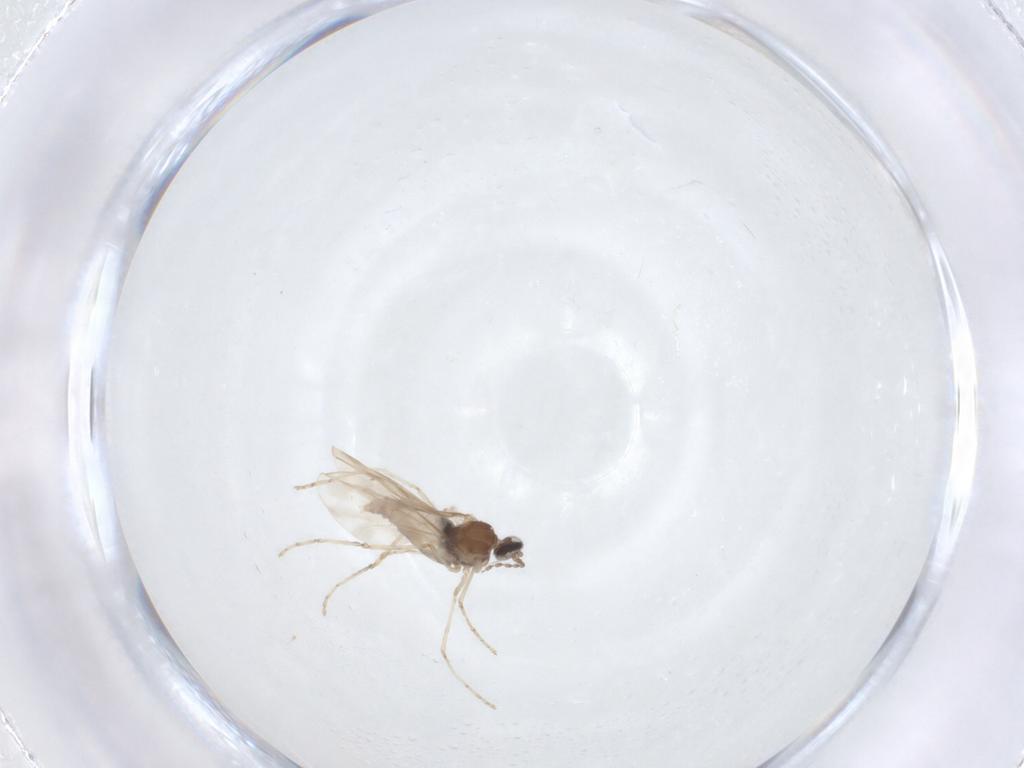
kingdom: Animalia
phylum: Arthropoda
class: Insecta
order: Diptera
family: Cecidomyiidae
